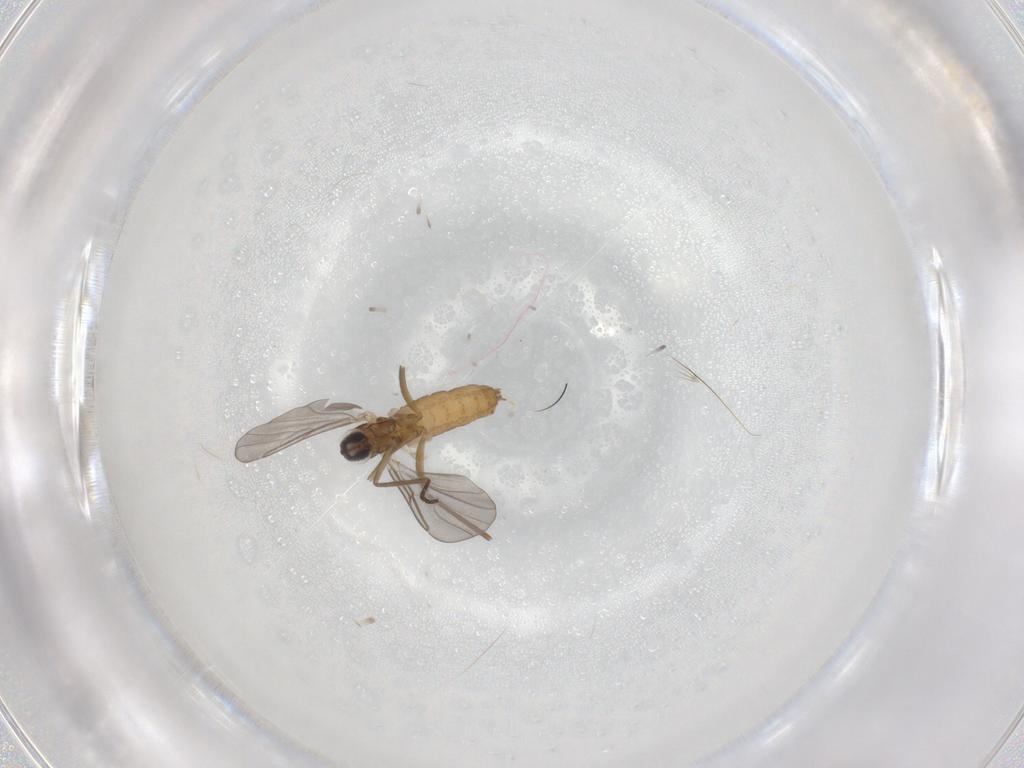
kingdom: Animalia
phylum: Arthropoda
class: Insecta
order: Diptera
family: Cecidomyiidae
